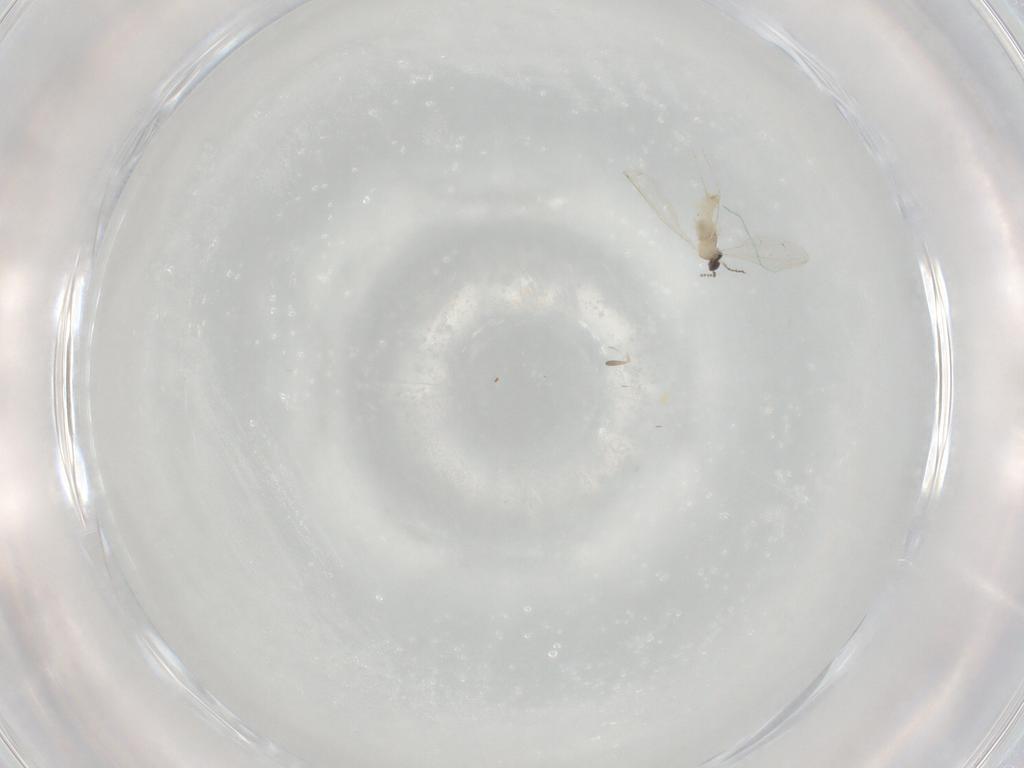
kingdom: Animalia
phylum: Arthropoda
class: Insecta
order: Diptera
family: Cecidomyiidae
